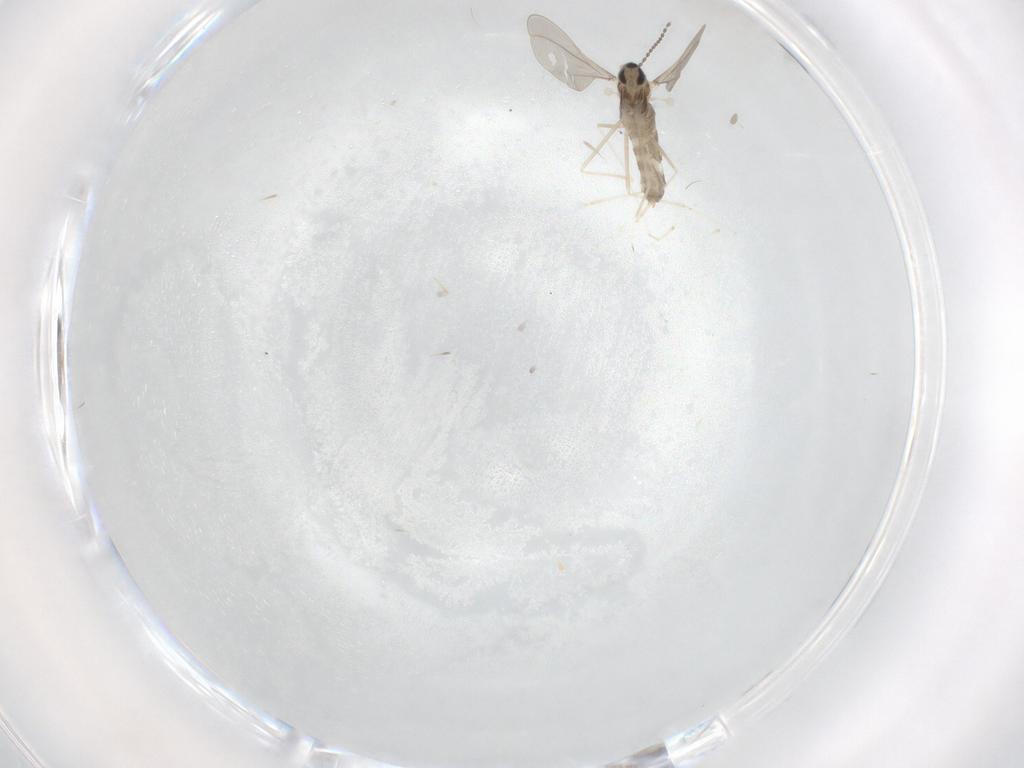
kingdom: Animalia
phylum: Arthropoda
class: Insecta
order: Diptera
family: Cecidomyiidae
